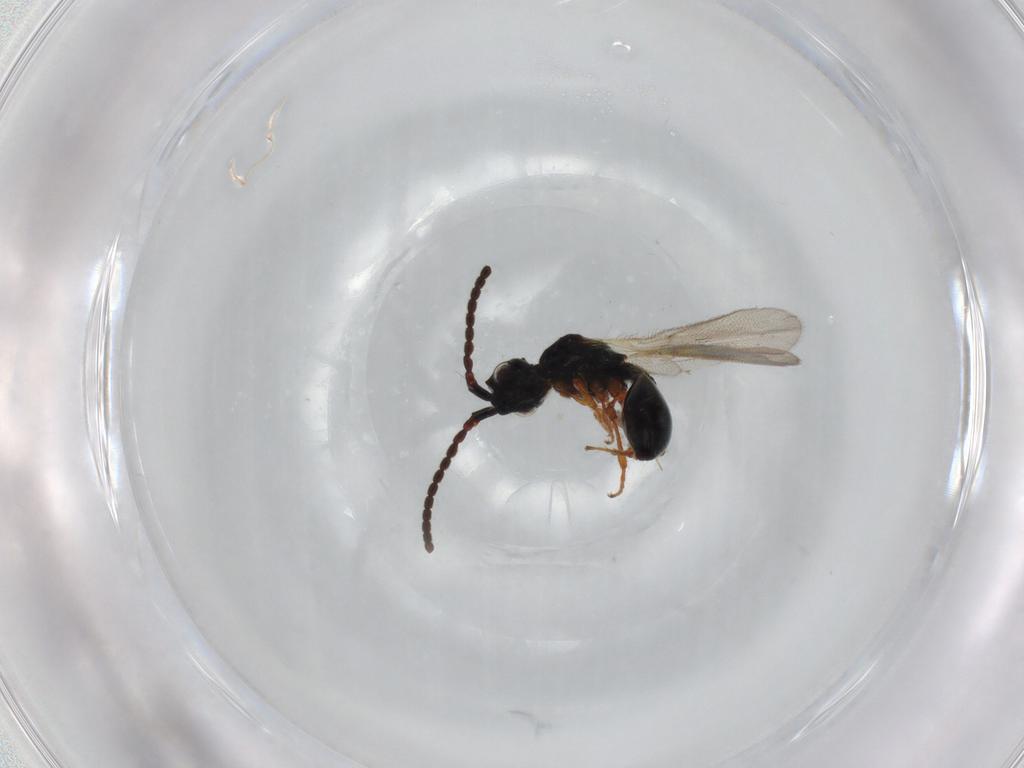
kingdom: Animalia
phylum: Arthropoda
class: Insecta
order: Hymenoptera
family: Diapriidae
